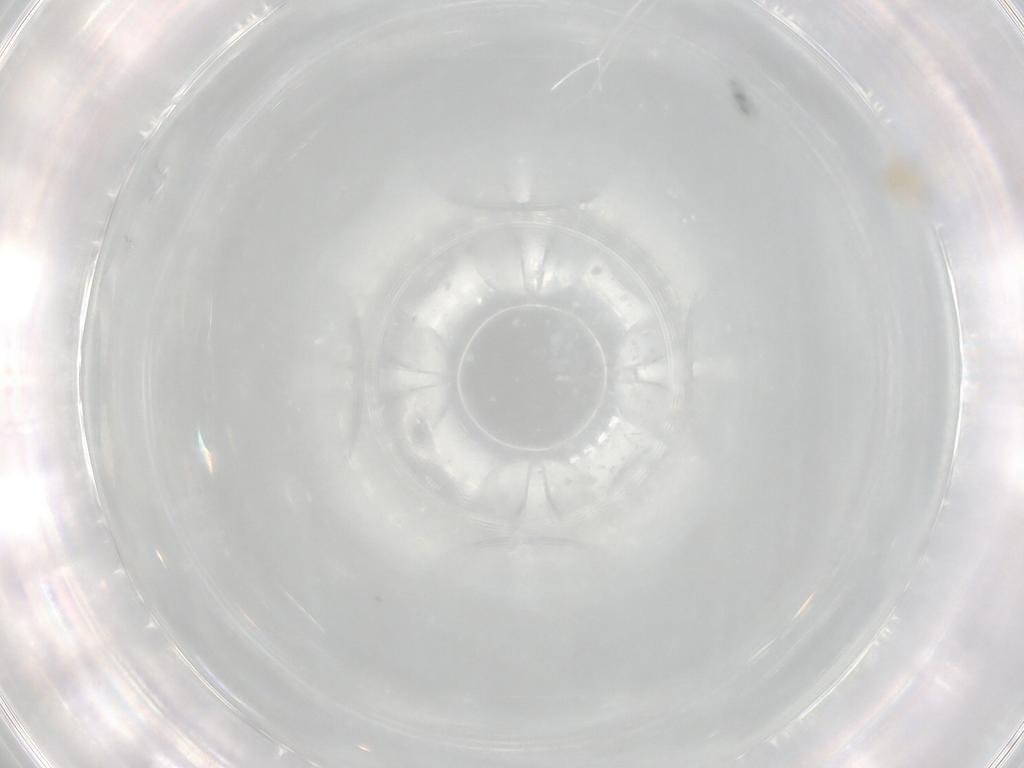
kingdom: Animalia
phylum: Arthropoda
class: Insecta
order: Hemiptera
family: Aleyrodidae
